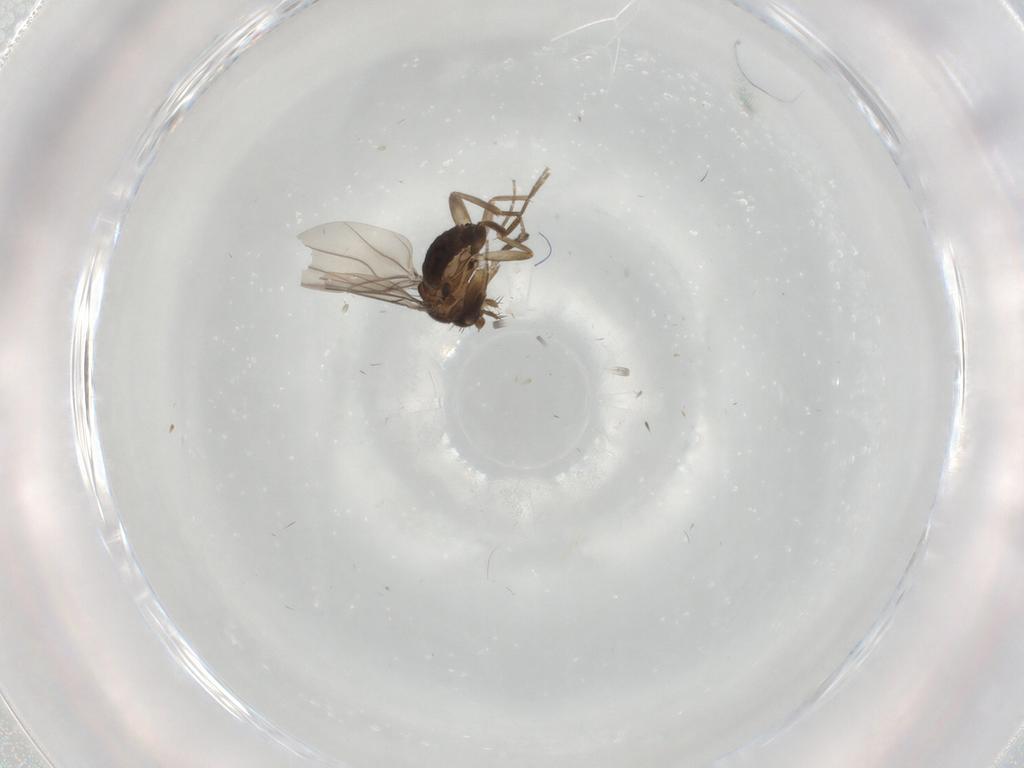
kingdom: Animalia
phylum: Arthropoda
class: Insecta
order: Diptera
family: Phoridae
